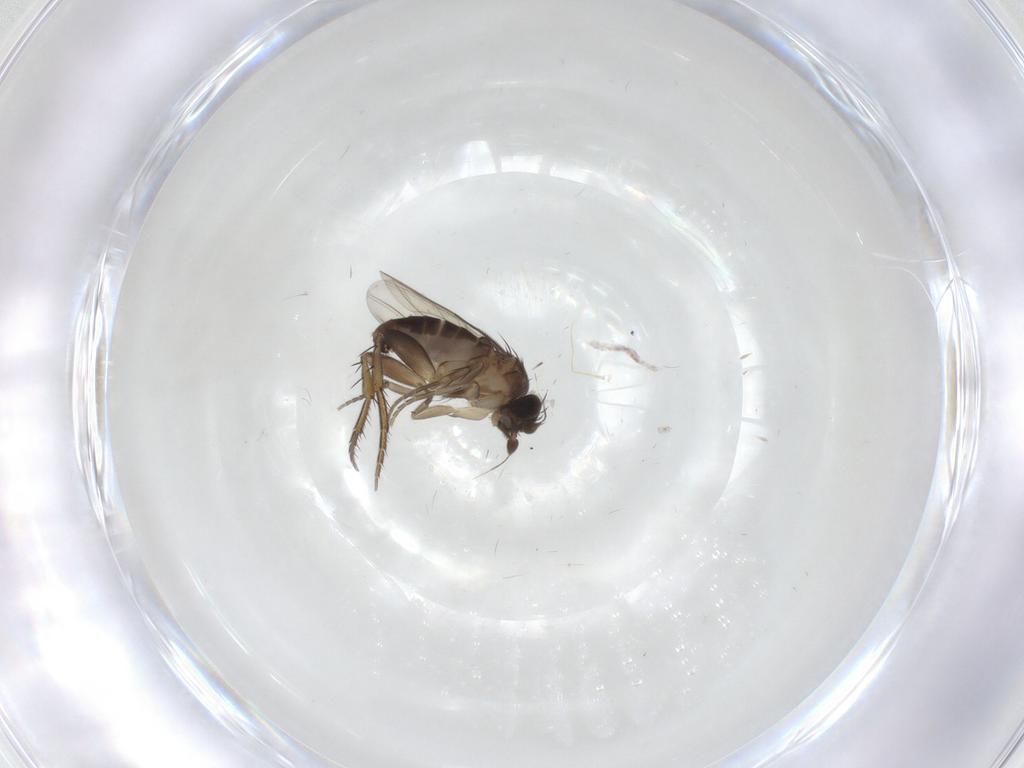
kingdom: Animalia
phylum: Arthropoda
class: Insecta
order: Diptera
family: Phoridae
